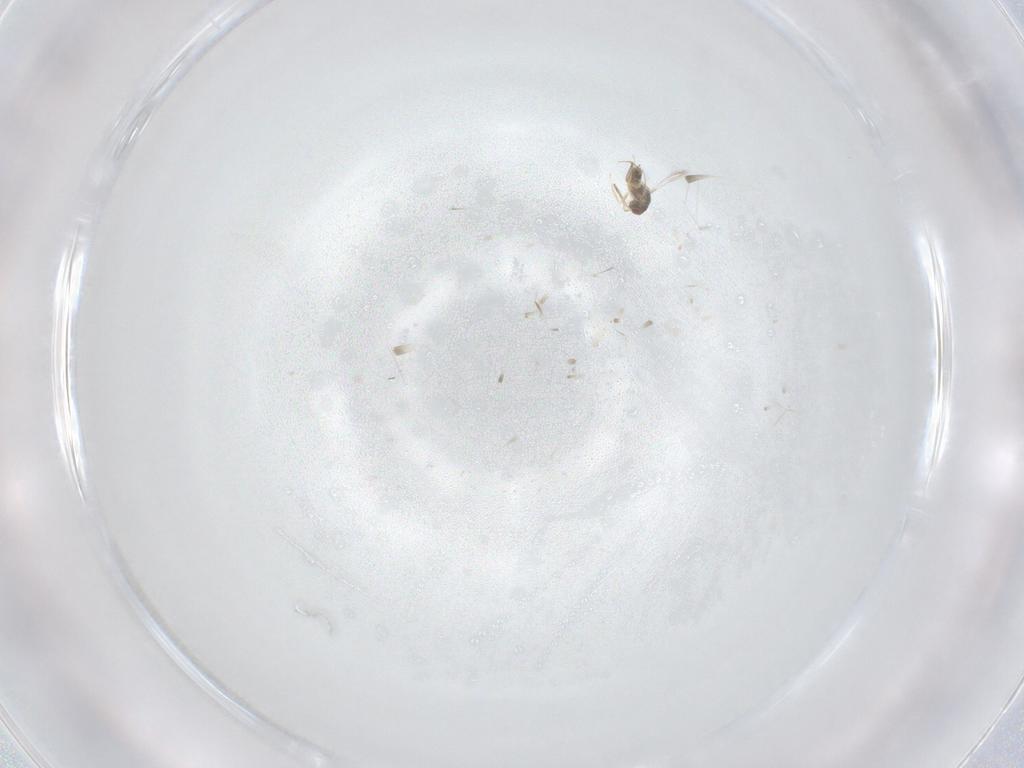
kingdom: Animalia
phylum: Arthropoda
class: Insecta
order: Hymenoptera
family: Mymaridae
